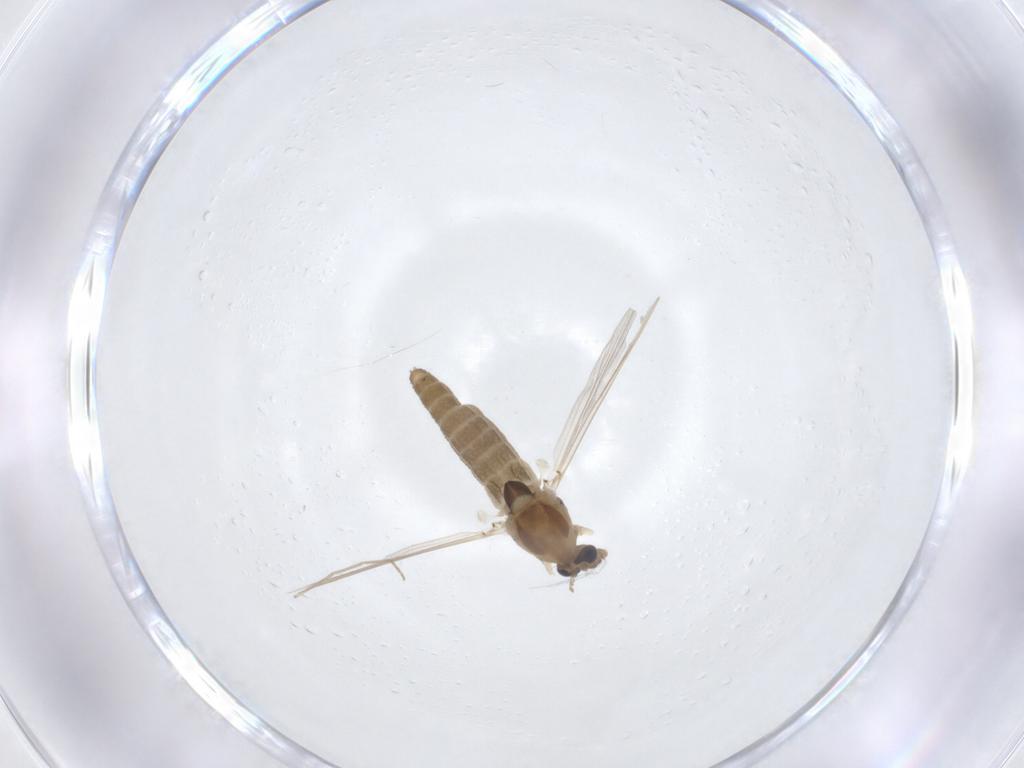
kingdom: Animalia
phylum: Arthropoda
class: Insecta
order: Diptera
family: Chironomidae
